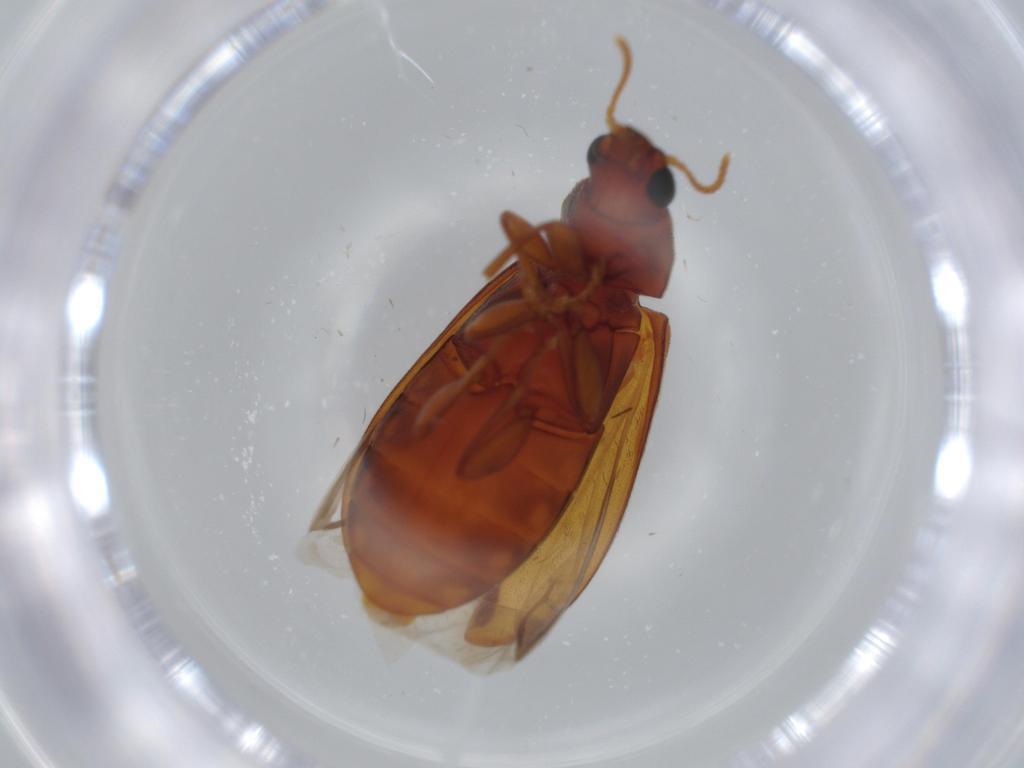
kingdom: Animalia
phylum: Arthropoda
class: Insecta
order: Coleoptera
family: Mycteridae
